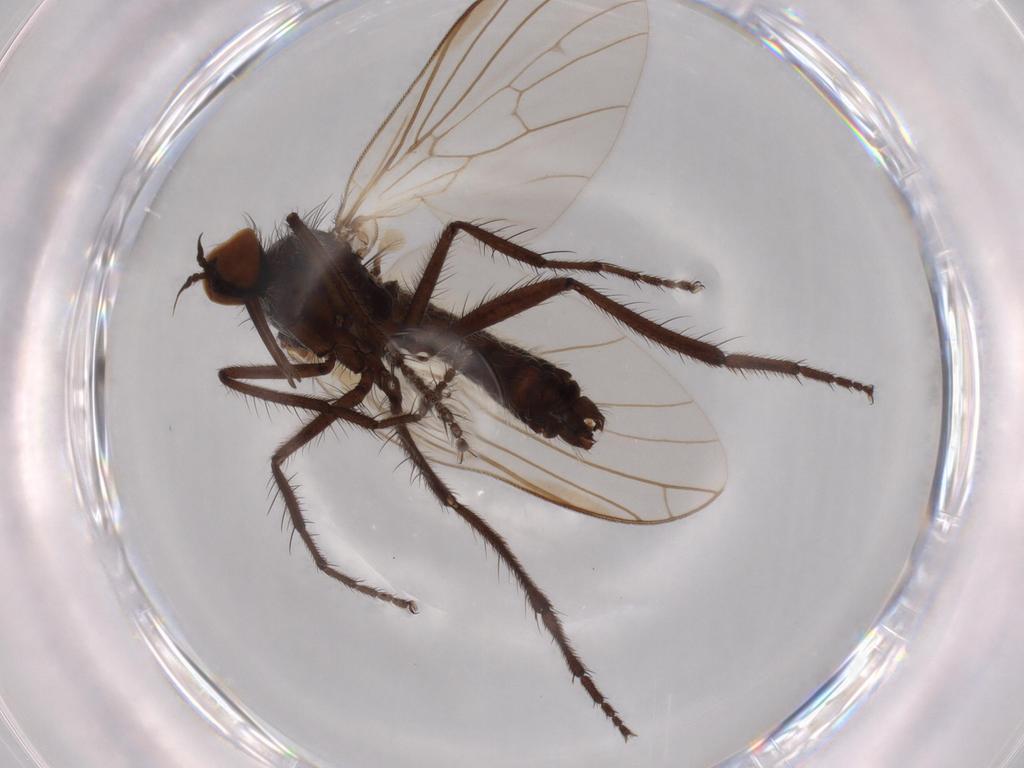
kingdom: Animalia
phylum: Arthropoda
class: Insecta
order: Diptera
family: Empididae
